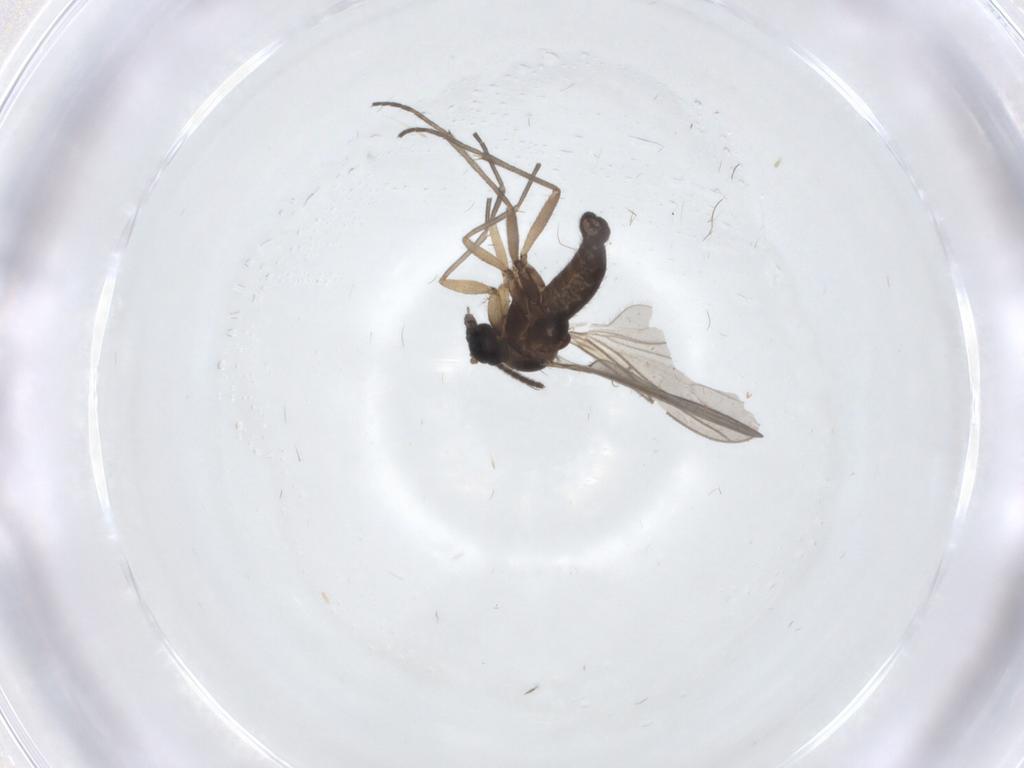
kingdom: Animalia
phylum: Arthropoda
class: Insecta
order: Diptera
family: Sciaridae
